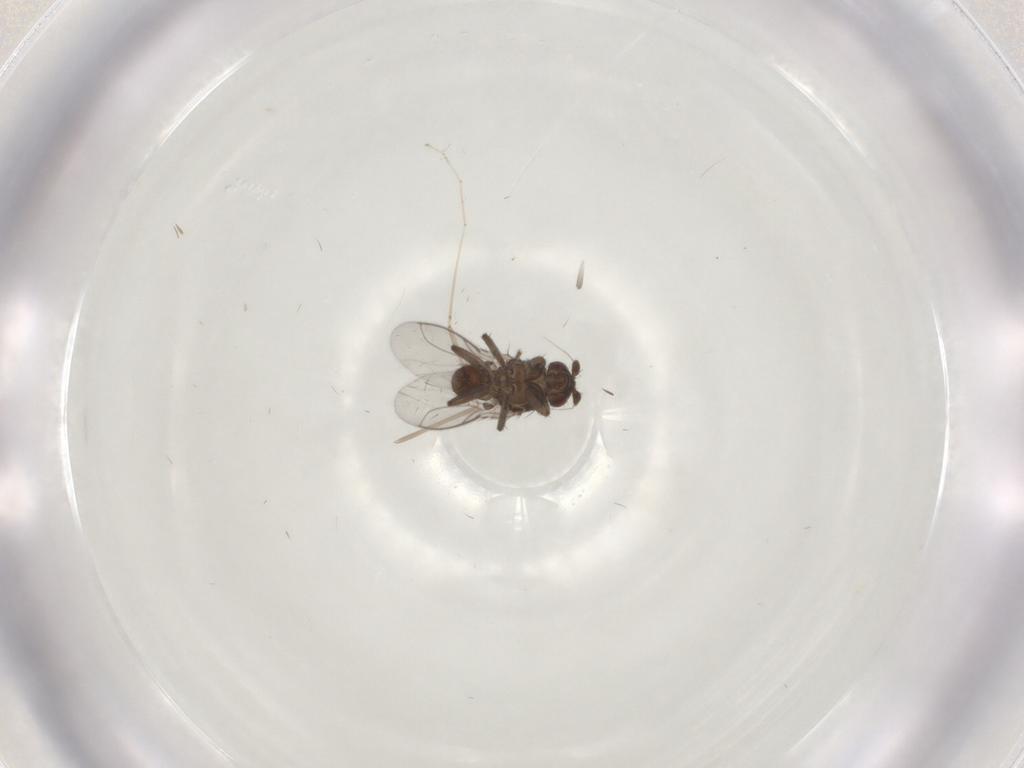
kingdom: Animalia
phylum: Arthropoda
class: Insecta
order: Diptera
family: Cecidomyiidae
